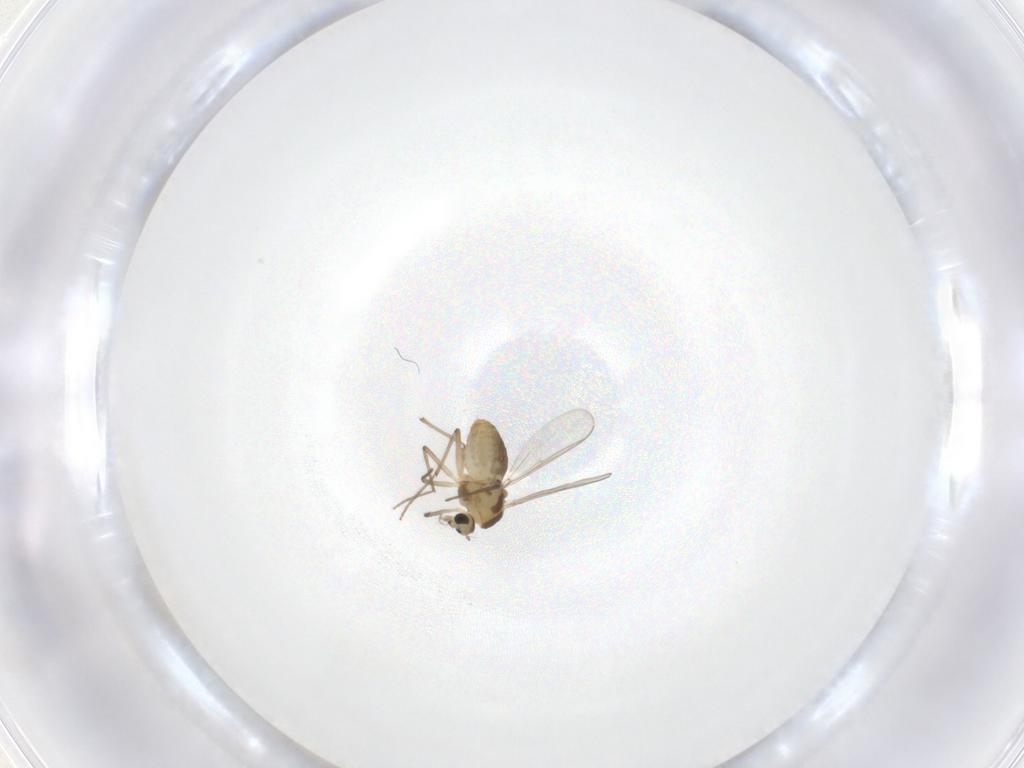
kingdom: Animalia
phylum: Arthropoda
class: Insecta
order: Diptera
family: Chironomidae
